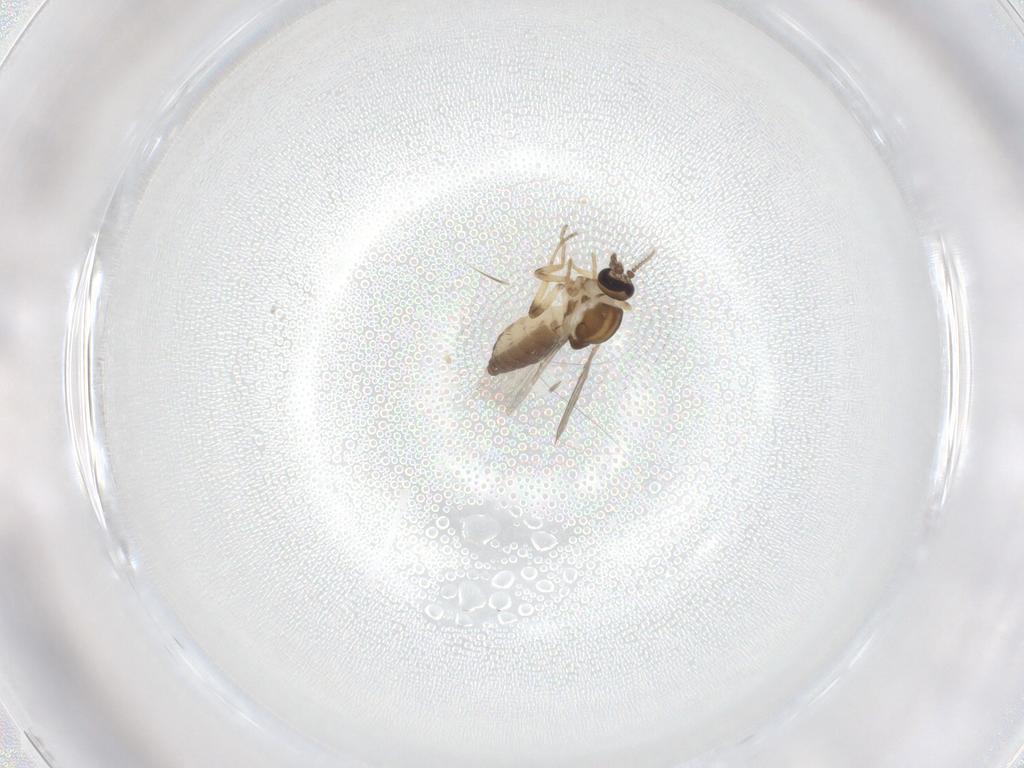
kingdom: Animalia
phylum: Arthropoda
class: Insecta
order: Diptera
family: Ceratopogonidae
